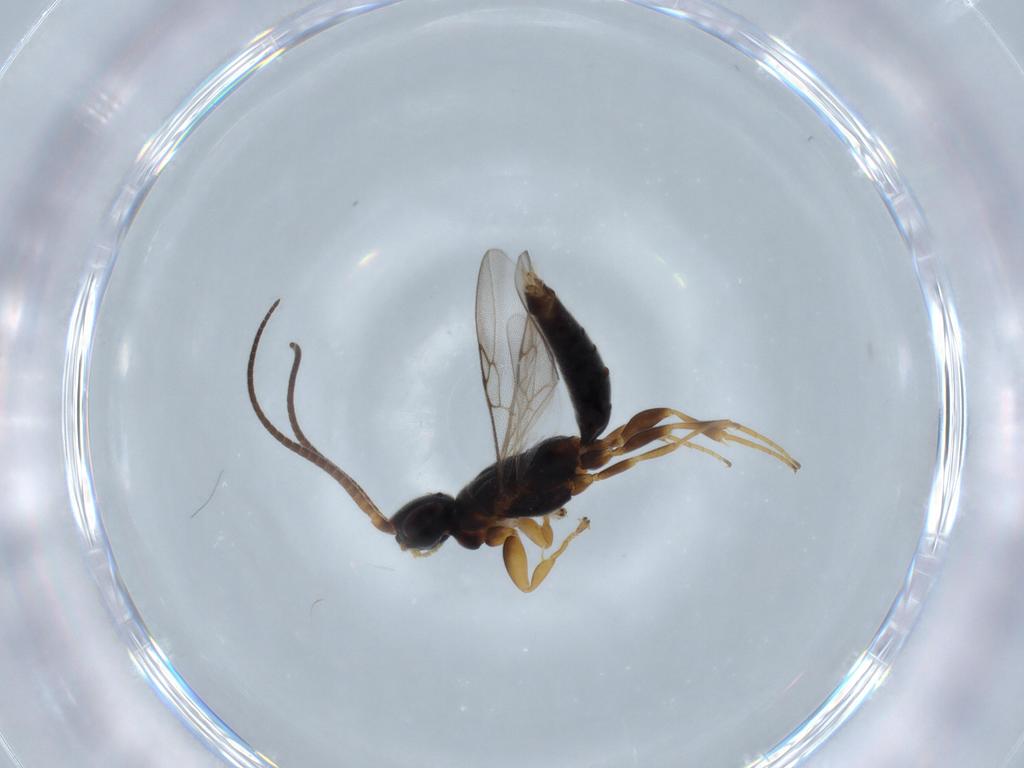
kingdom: Animalia
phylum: Arthropoda
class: Insecta
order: Hymenoptera
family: Sclerogibbidae
